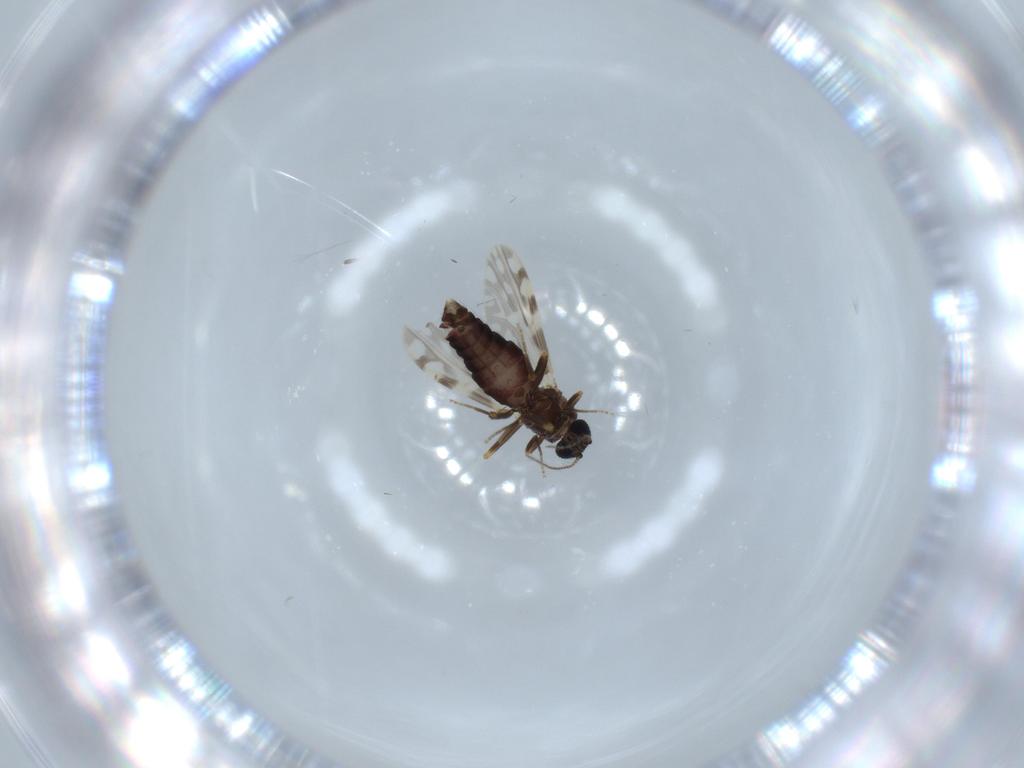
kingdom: Animalia
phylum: Arthropoda
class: Insecta
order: Diptera
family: Ceratopogonidae
